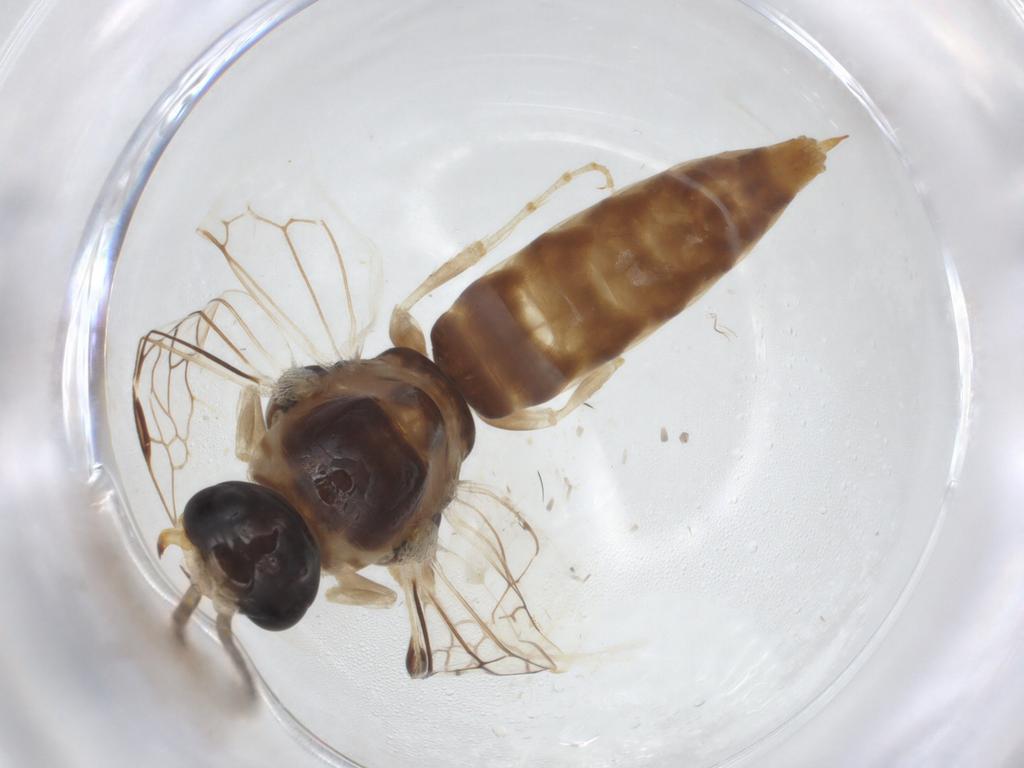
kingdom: Animalia
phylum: Arthropoda
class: Insecta
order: Hymenoptera
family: Tiphiidae
